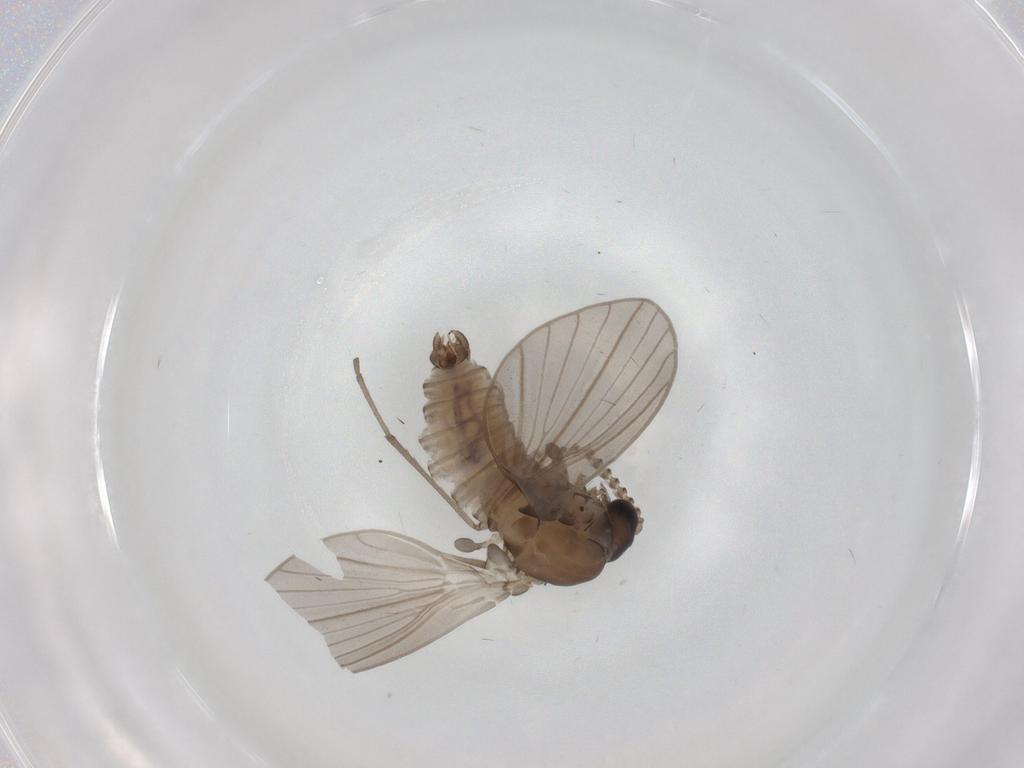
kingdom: Animalia
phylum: Arthropoda
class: Insecta
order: Diptera
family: Psychodidae
